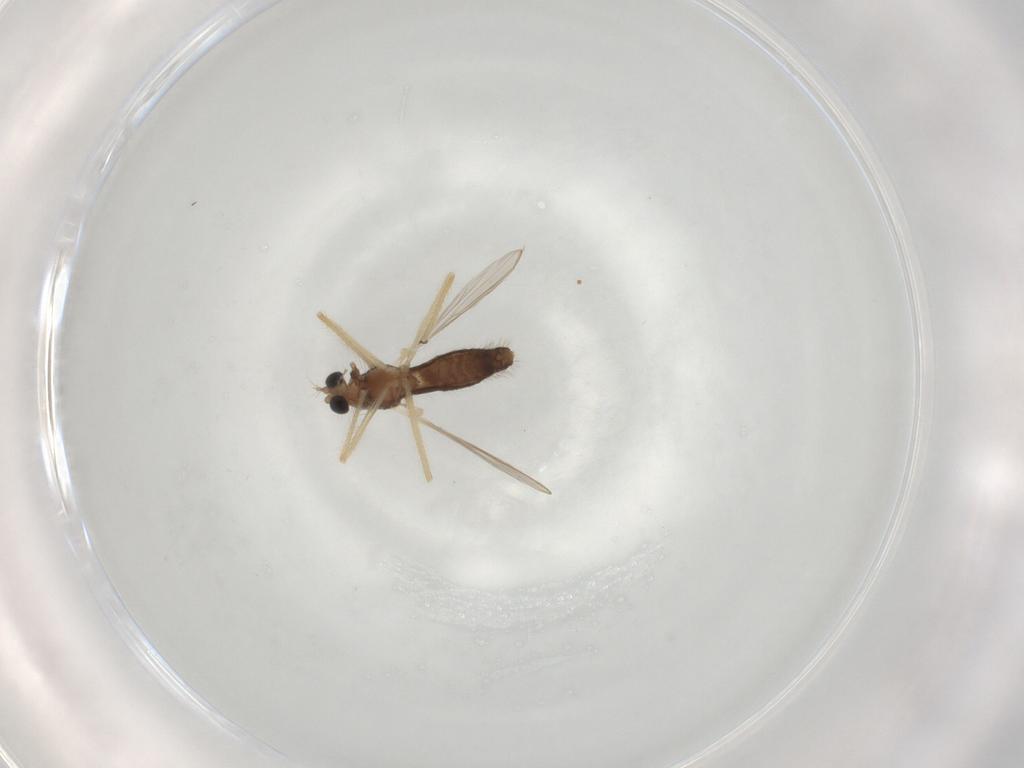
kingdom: Animalia
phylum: Arthropoda
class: Insecta
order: Diptera
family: Chironomidae
